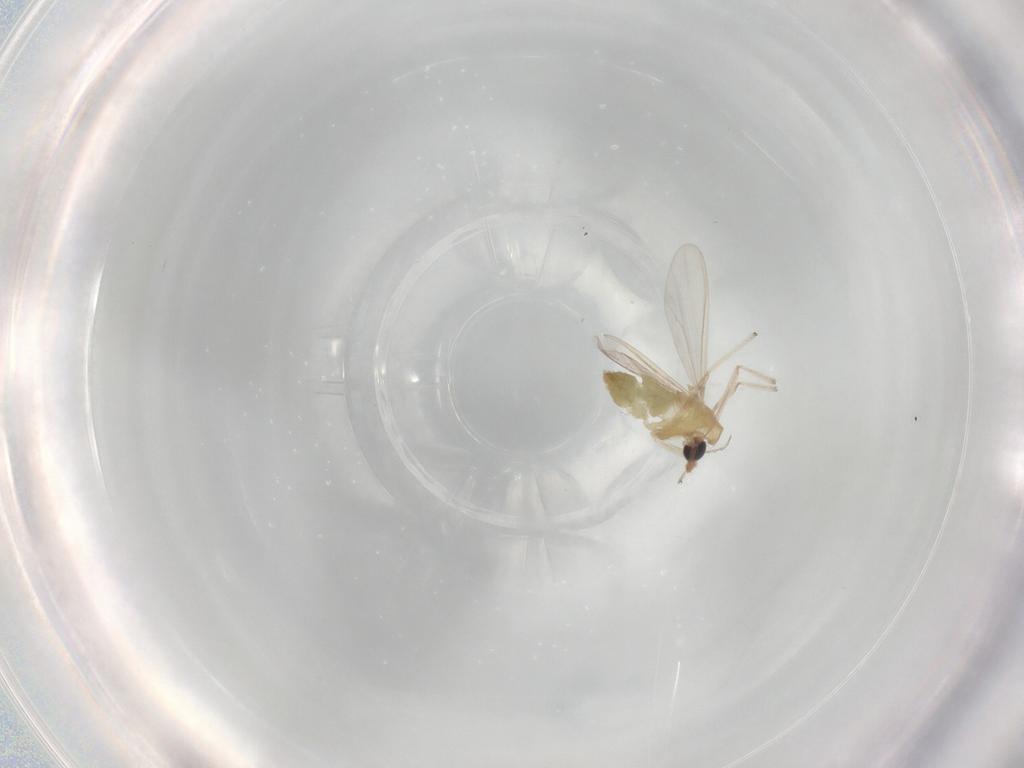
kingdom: Animalia
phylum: Arthropoda
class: Insecta
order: Diptera
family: Chironomidae
